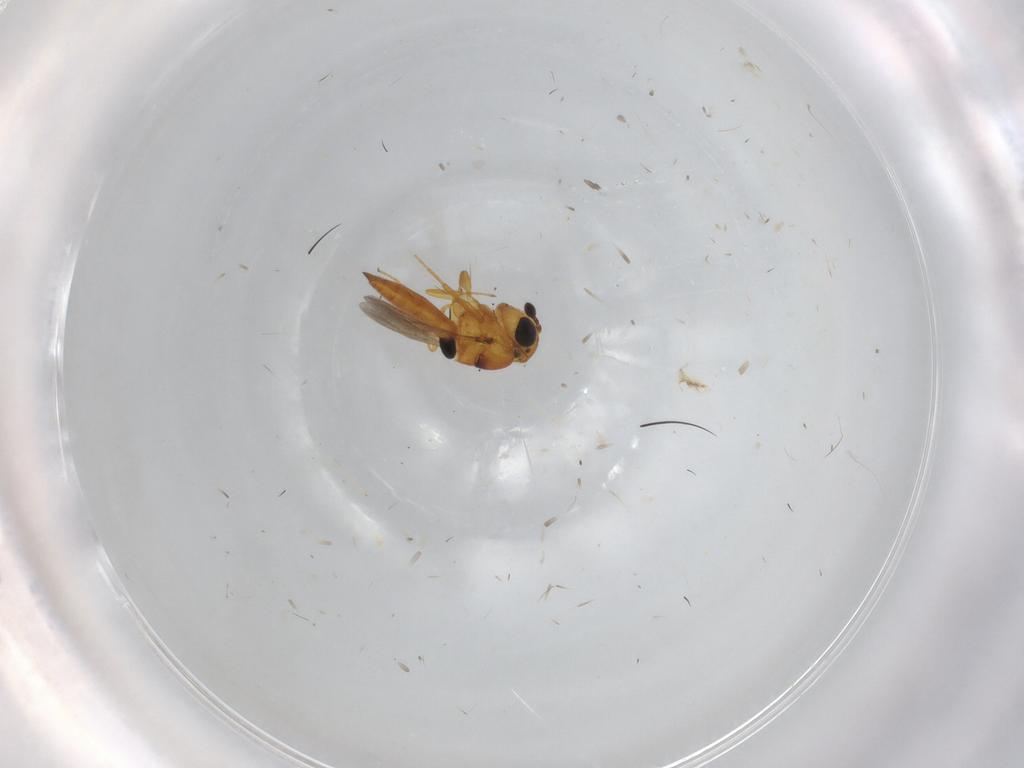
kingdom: Animalia
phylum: Arthropoda
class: Insecta
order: Hymenoptera
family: Scelionidae
